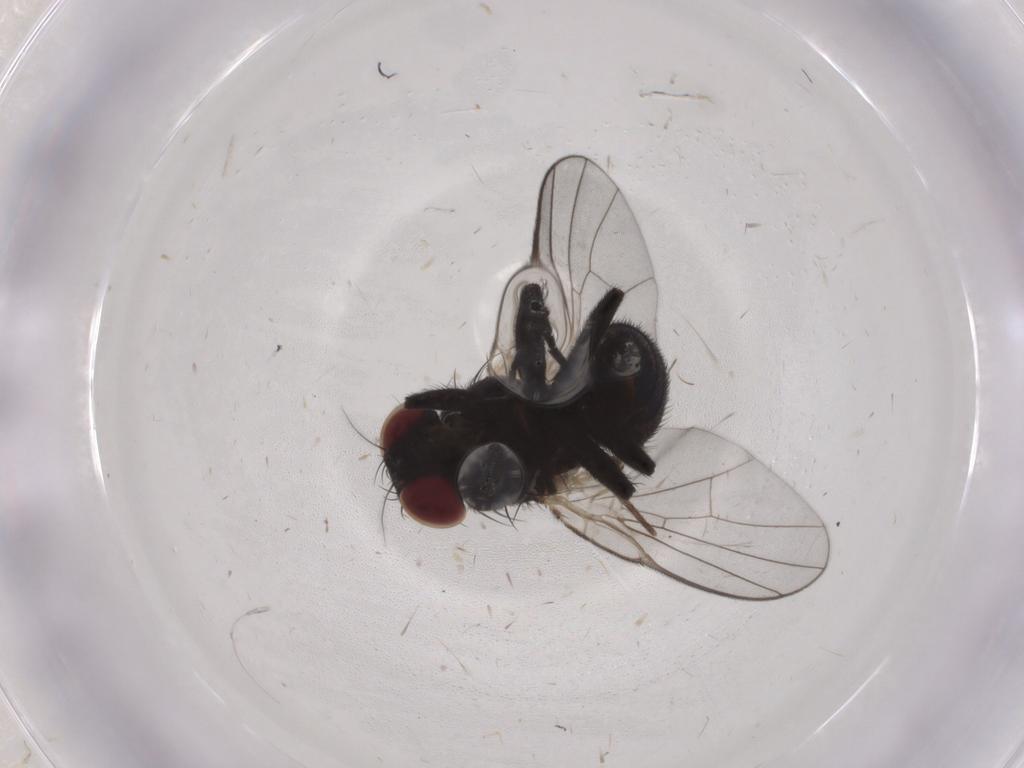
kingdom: Animalia
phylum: Arthropoda
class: Insecta
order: Diptera
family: Agromyzidae
